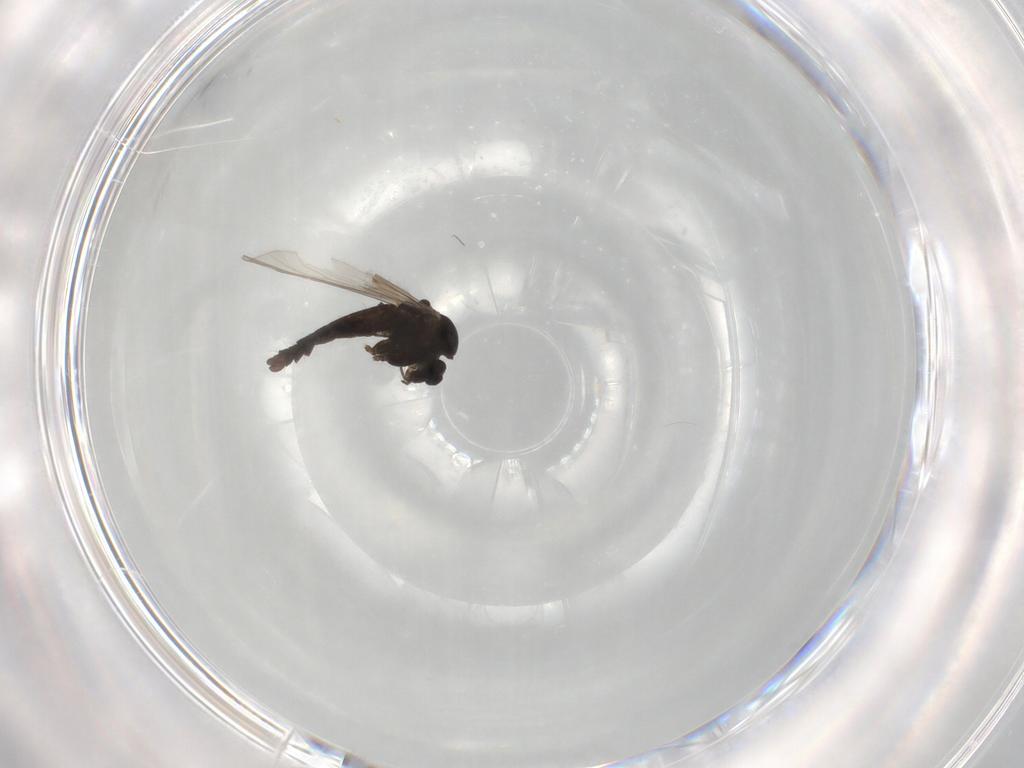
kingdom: Animalia
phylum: Arthropoda
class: Insecta
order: Diptera
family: Chironomidae
